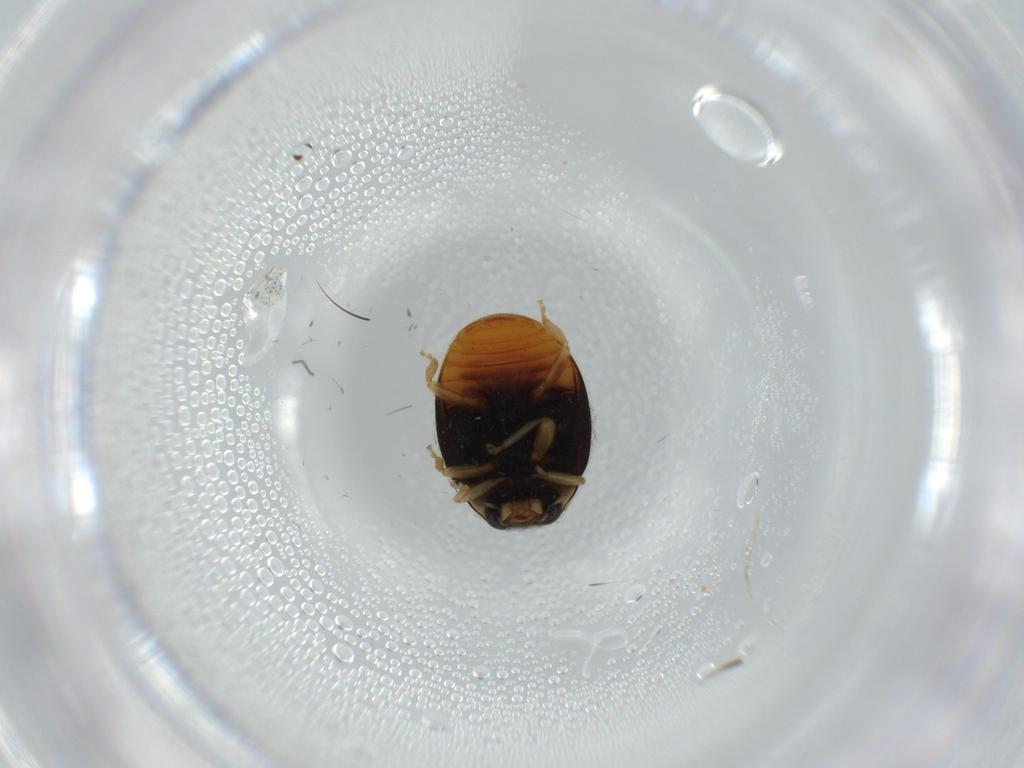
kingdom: Animalia
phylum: Arthropoda
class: Insecta
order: Coleoptera
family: Coccinellidae
